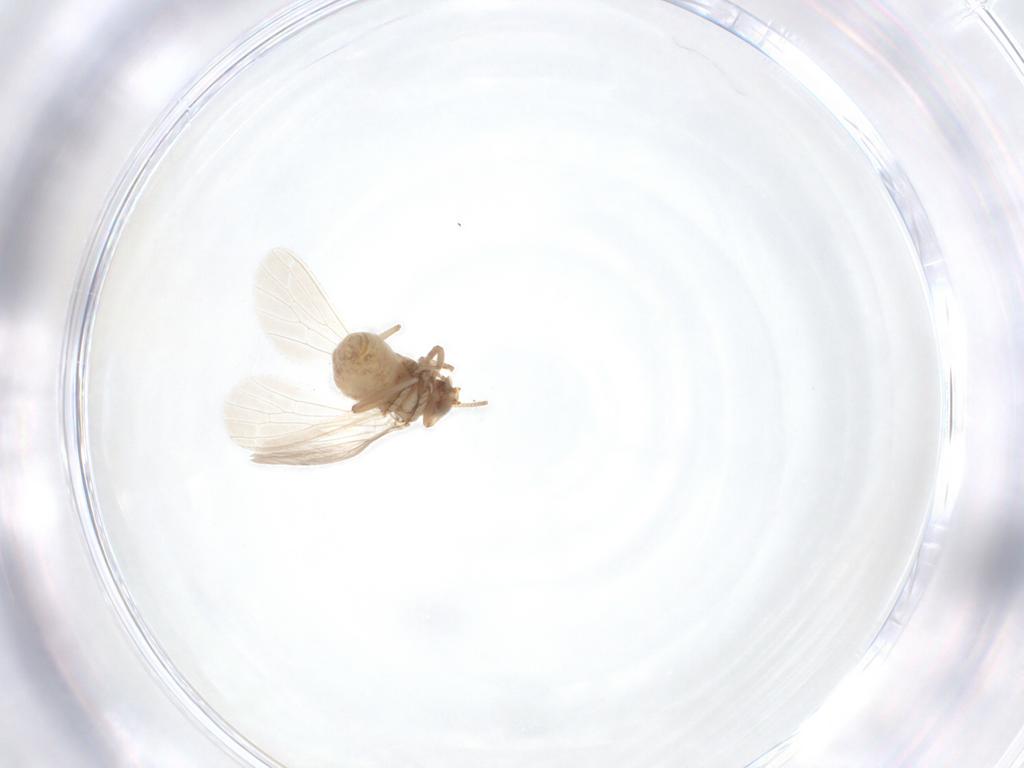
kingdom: Animalia
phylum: Arthropoda
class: Insecta
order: Neuroptera
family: Coniopterygidae
